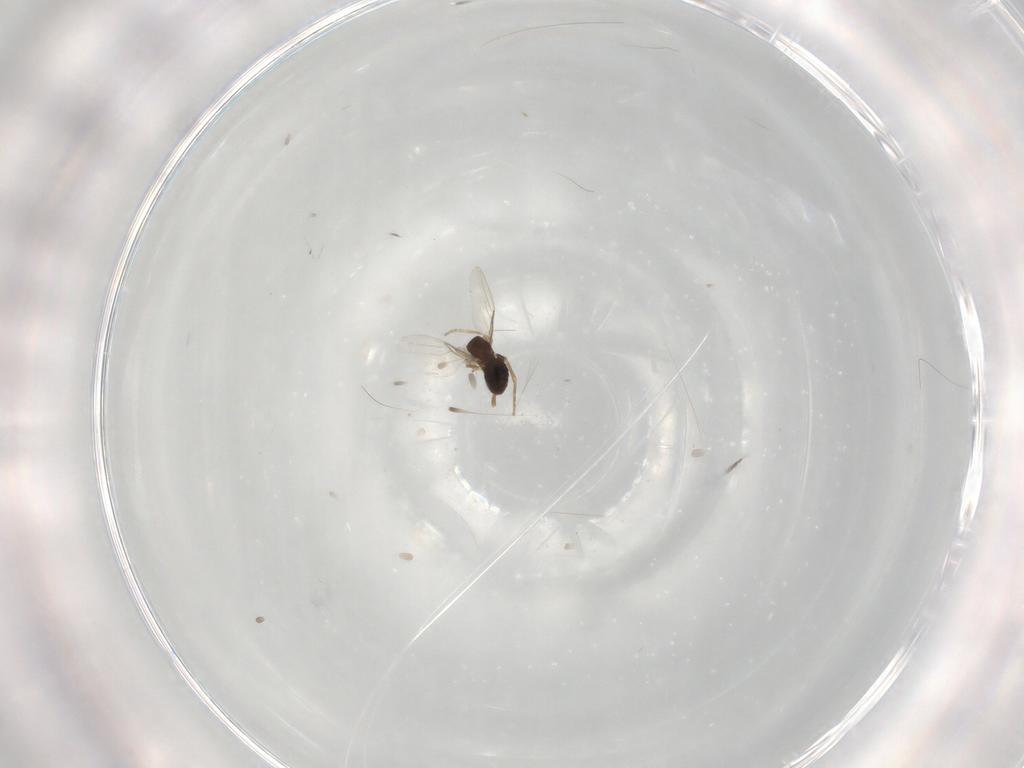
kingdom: Animalia
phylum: Arthropoda
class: Insecta
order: Diptera
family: Phoridae
